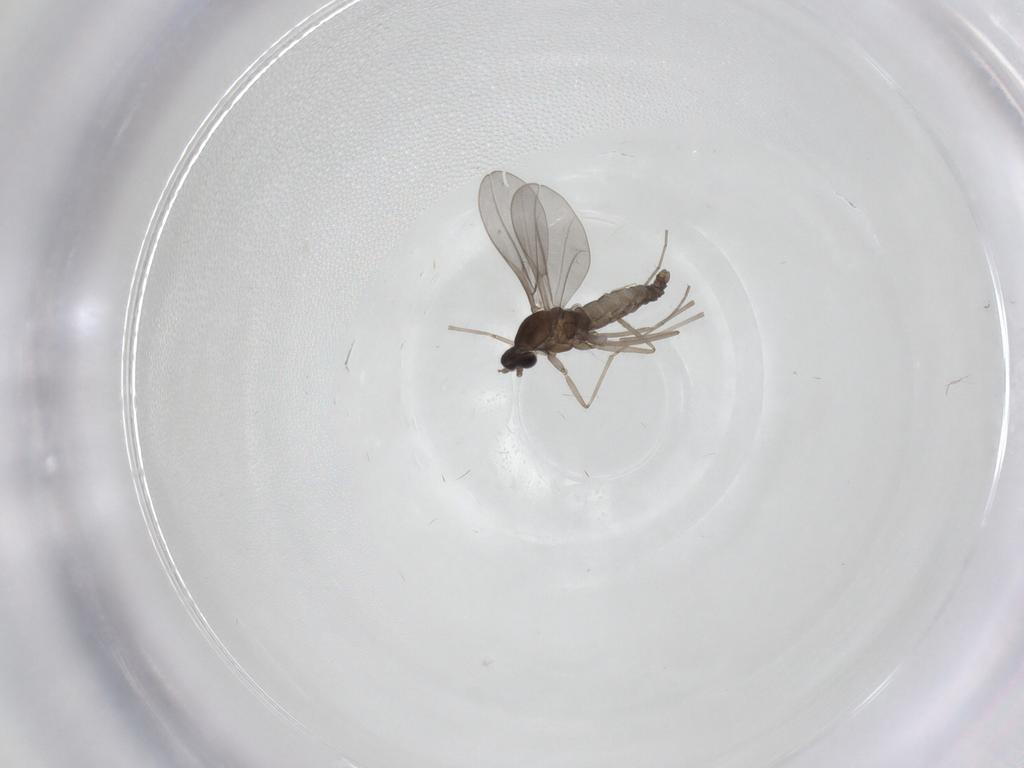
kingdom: Animalia
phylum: Arthropoda
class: Insecta
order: Diptera
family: Cecidomyiidae
